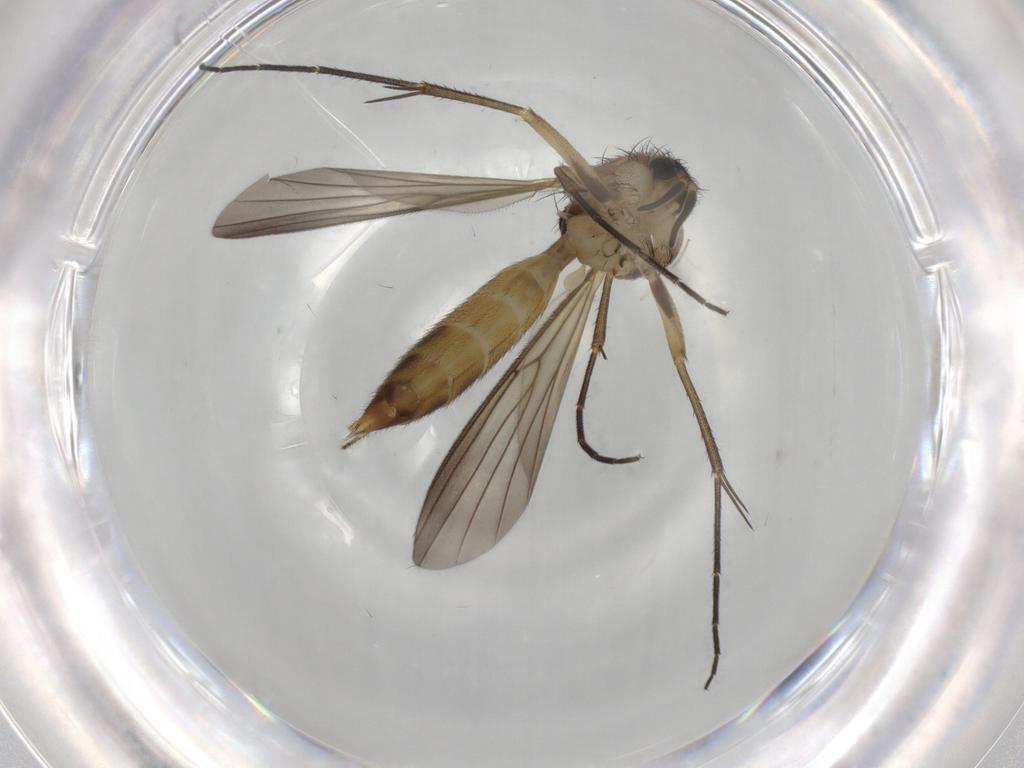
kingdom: Animalia
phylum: Arthropoda
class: Insecta
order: Diptera
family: Mycetophilidae
